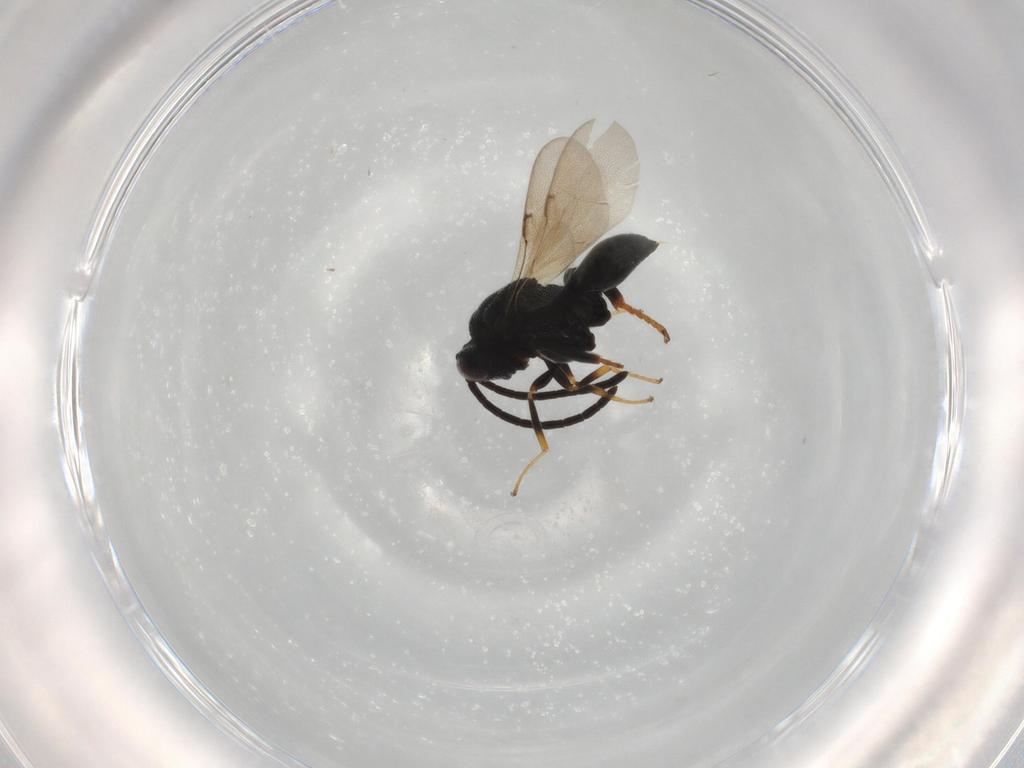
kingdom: Animalia
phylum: Arthropoda
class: Insecta
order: Hymenoptera
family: Diapriidae
